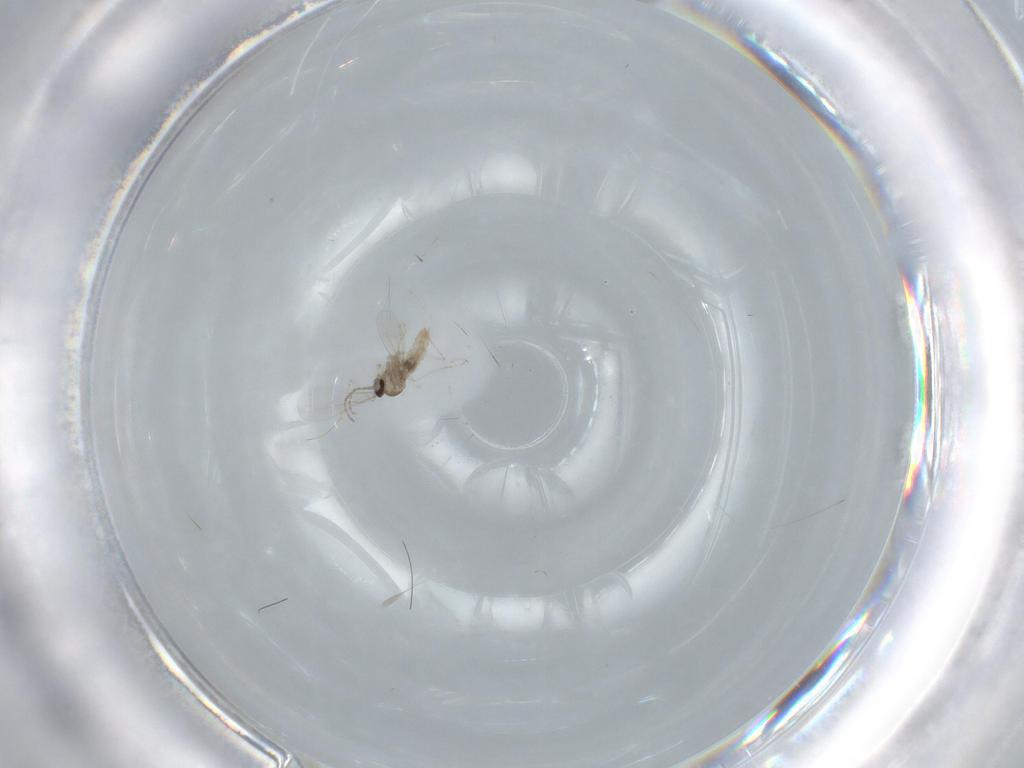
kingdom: Animalia
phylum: Arthropoda
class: Insecta
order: Diptera
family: Cecidomyiidae
